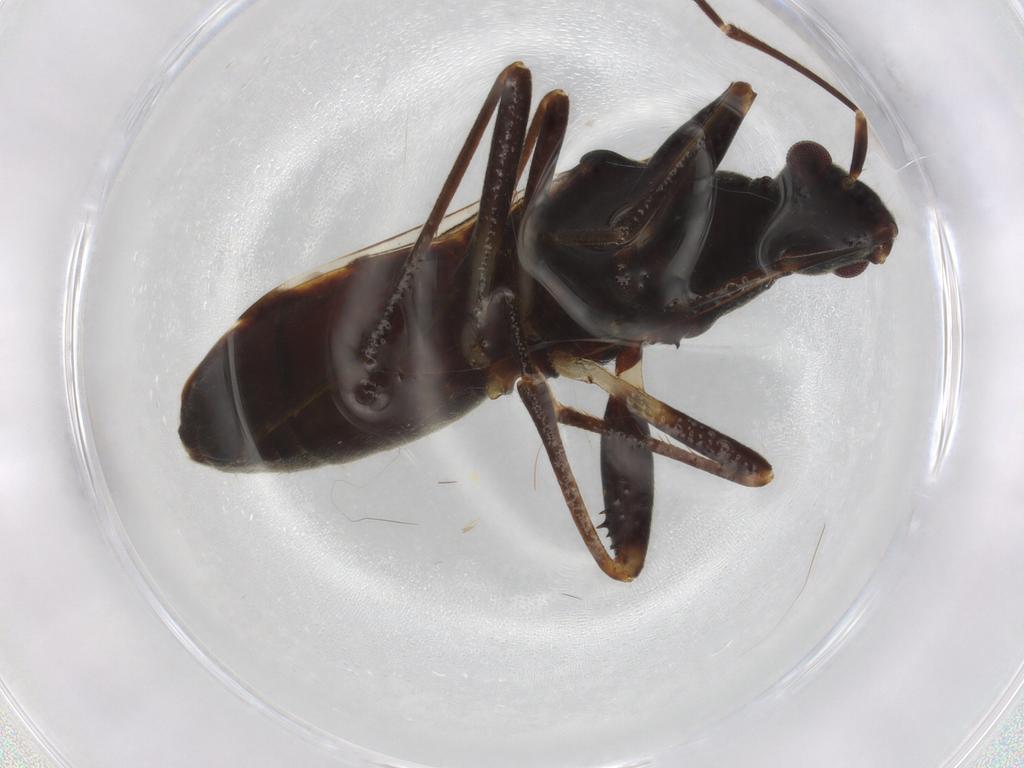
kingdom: Animalia
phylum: Arthropoda
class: Insecta
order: Hemiptera
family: Rhyparochromidae
